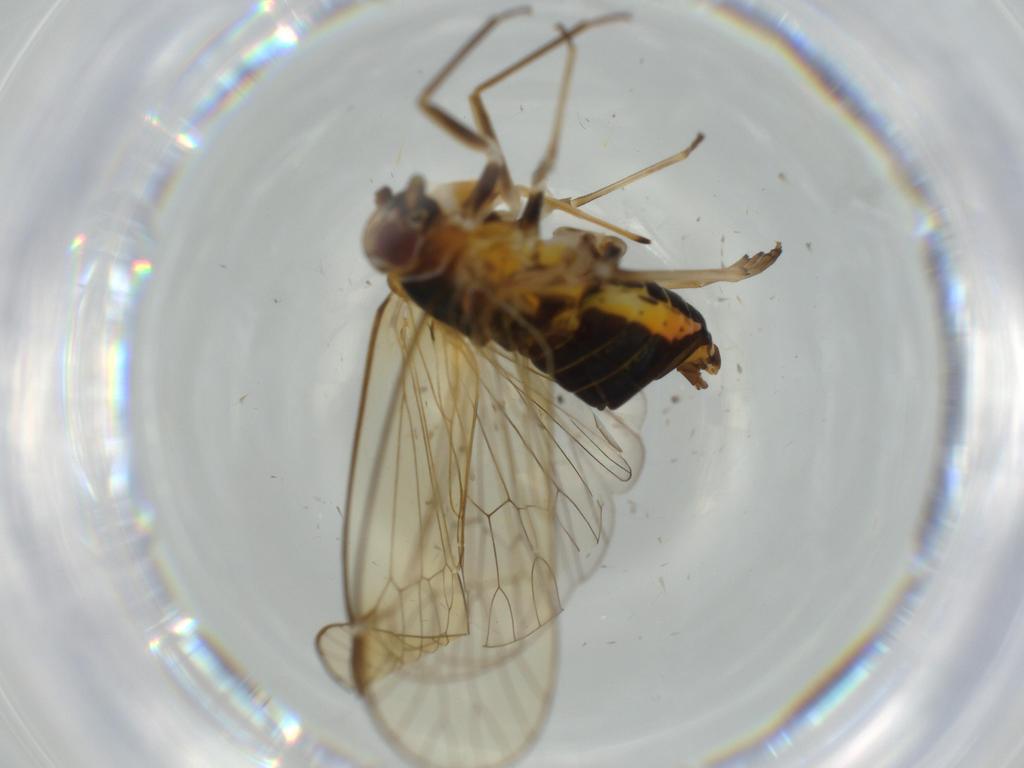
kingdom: Animalia
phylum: Arthropoda
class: Insecta
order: Hemiptera
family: Kinnaridae
